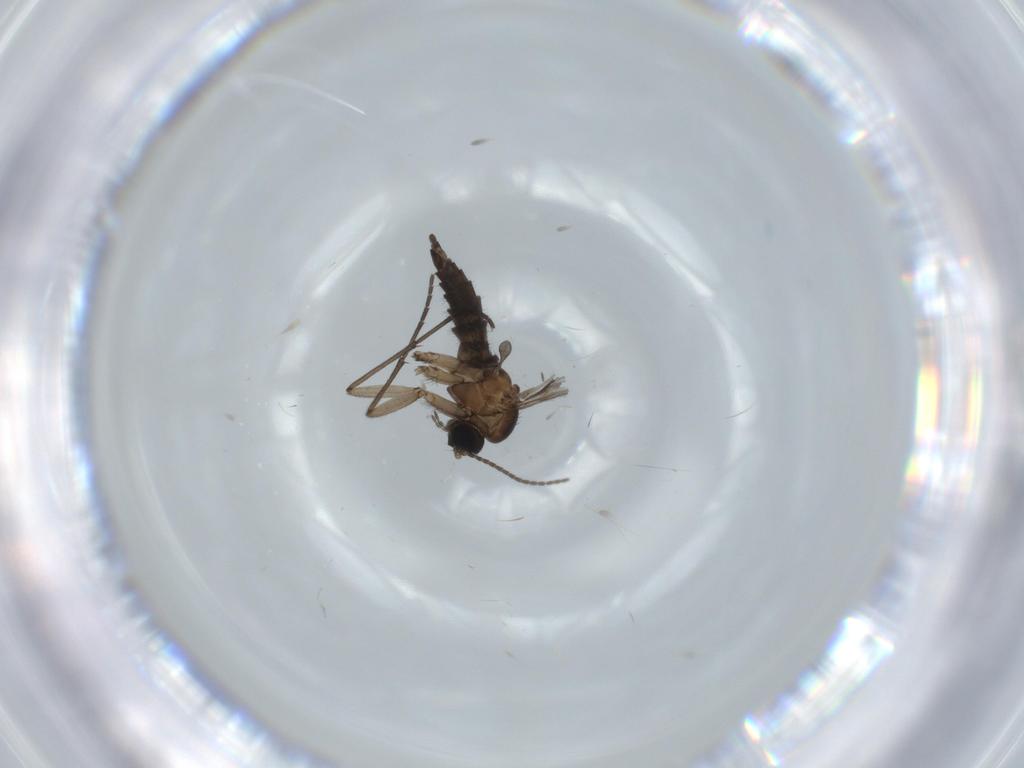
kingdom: Animalia
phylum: Arthropoda
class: Insecta
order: Diptera
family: Sciaridae
